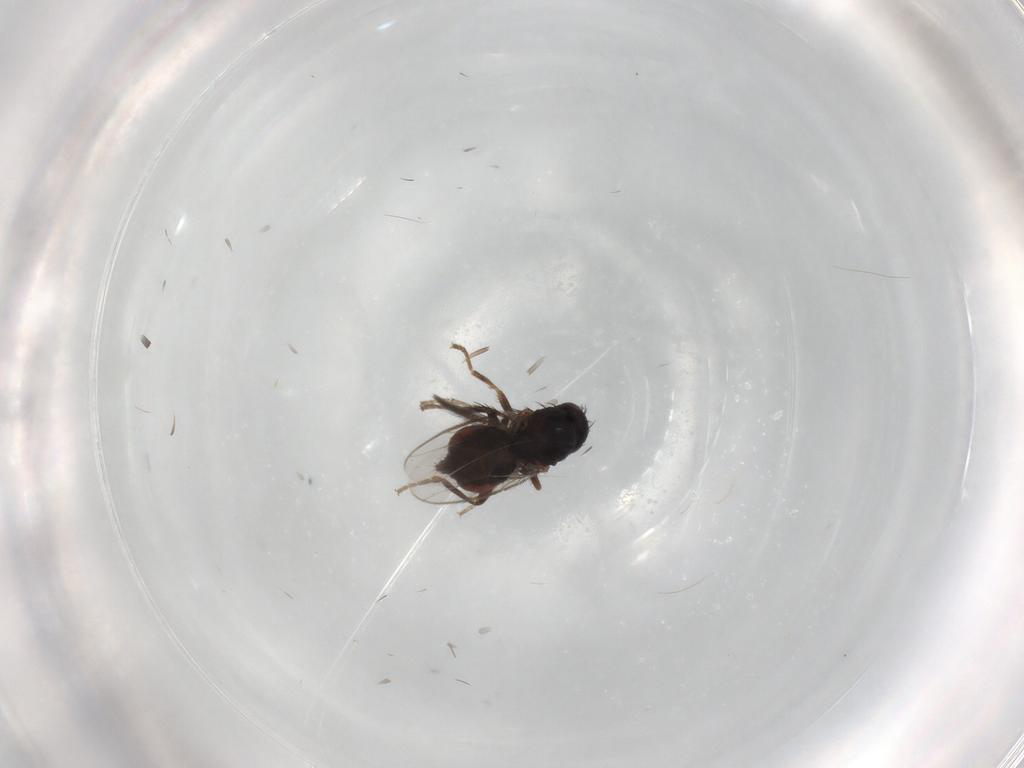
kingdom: Animalia
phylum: Arthropoda
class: Insecta
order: Diptera
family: Sphaeroceridae
